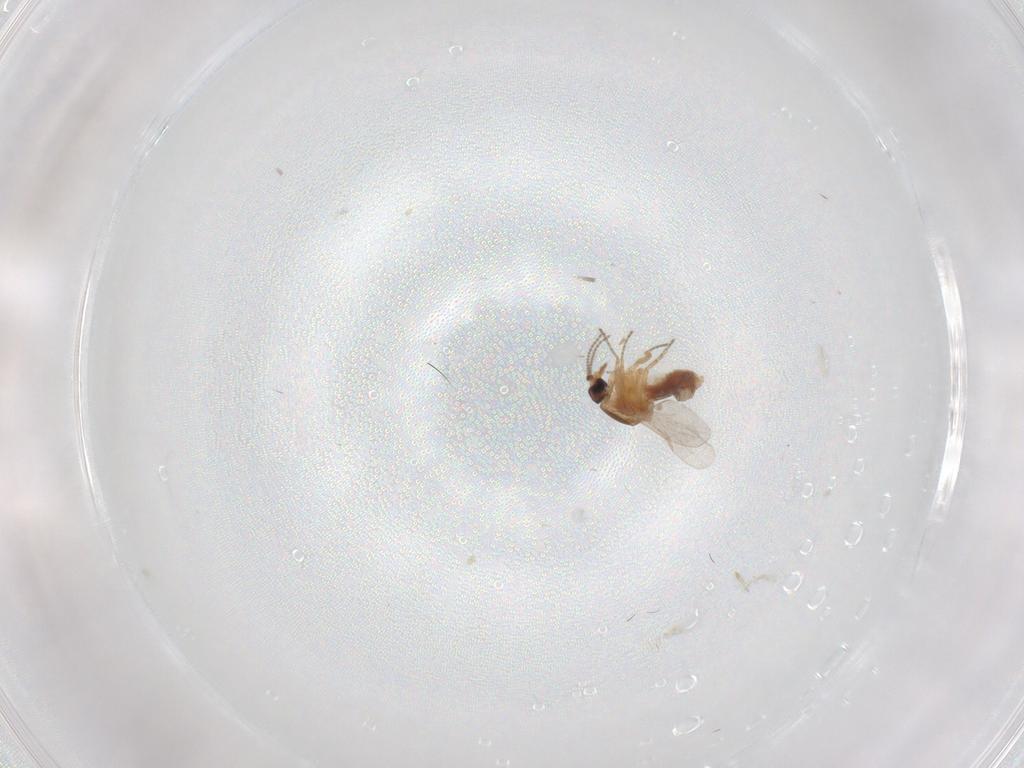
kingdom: Animalia
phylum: Arthropoda
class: Insecta
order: Diptera
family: Ceratopogonidae
